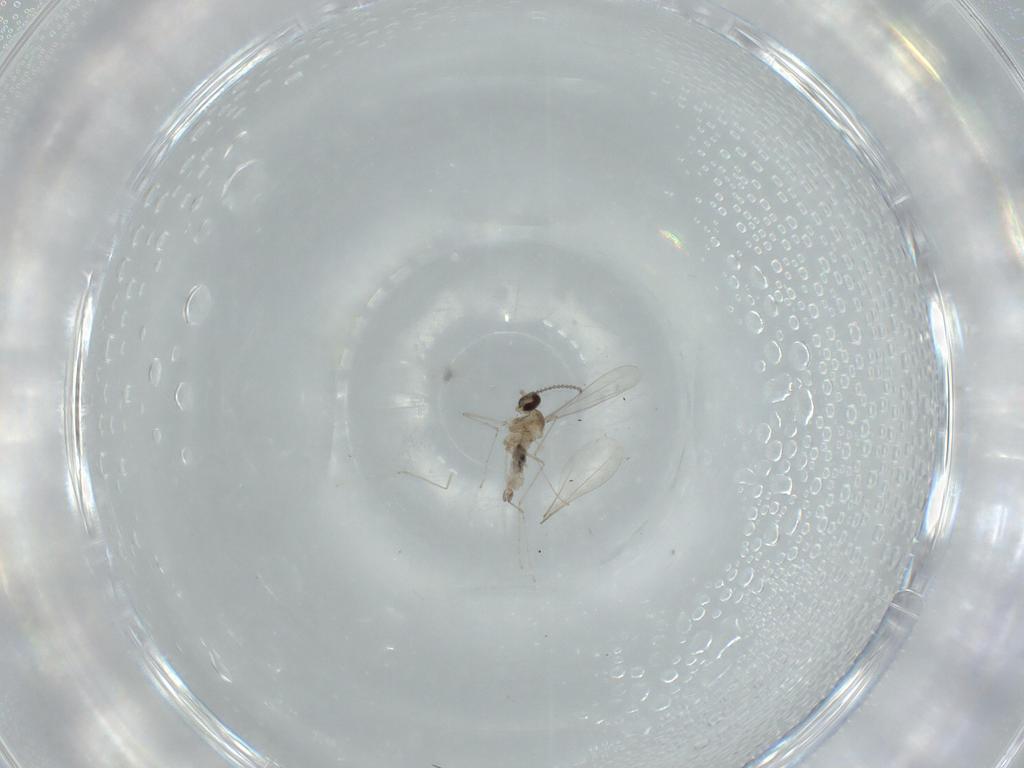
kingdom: Animalia
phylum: Arthropoda
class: Insecta
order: Diptera
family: Cecidomyiidae
